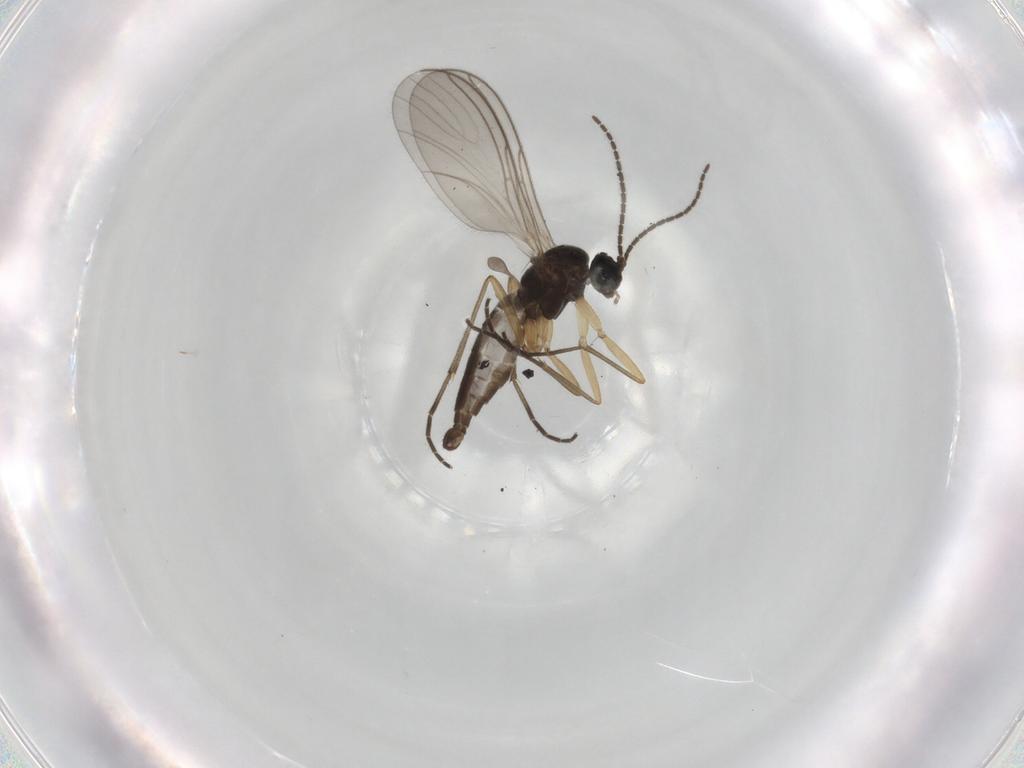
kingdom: Animalia
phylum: Arthropoda
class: Insecta
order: Diptera
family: Sciaridae
